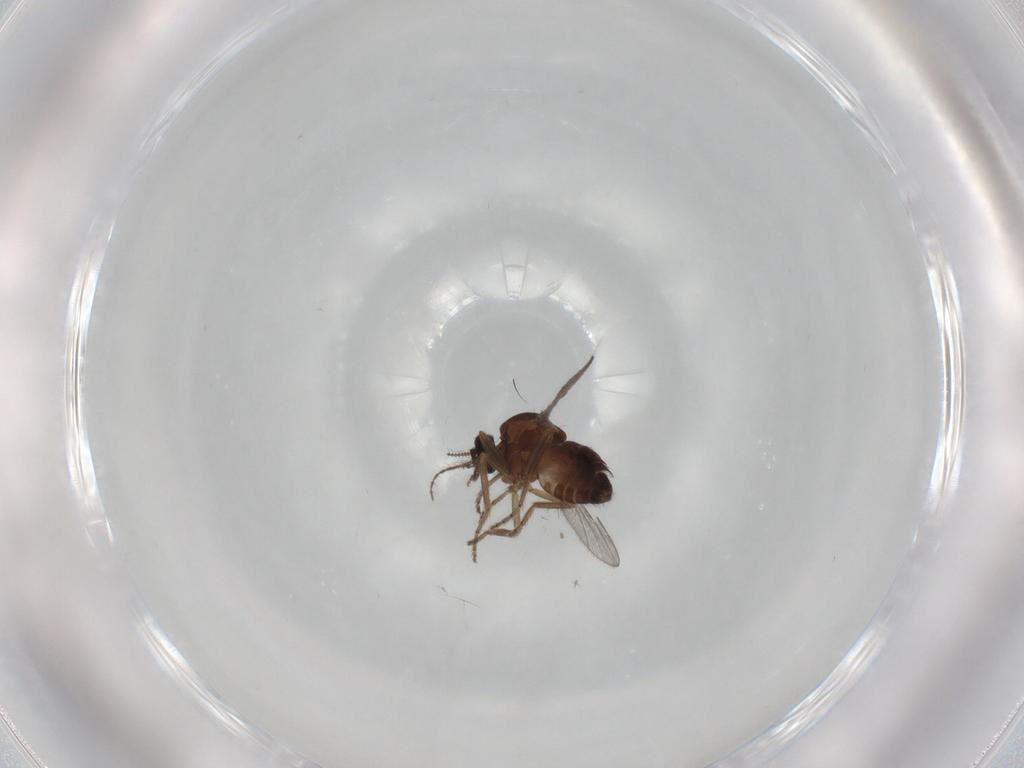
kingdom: Animalia
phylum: Arthropoda
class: Insecta
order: Diptera
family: Ceratopogonidae
